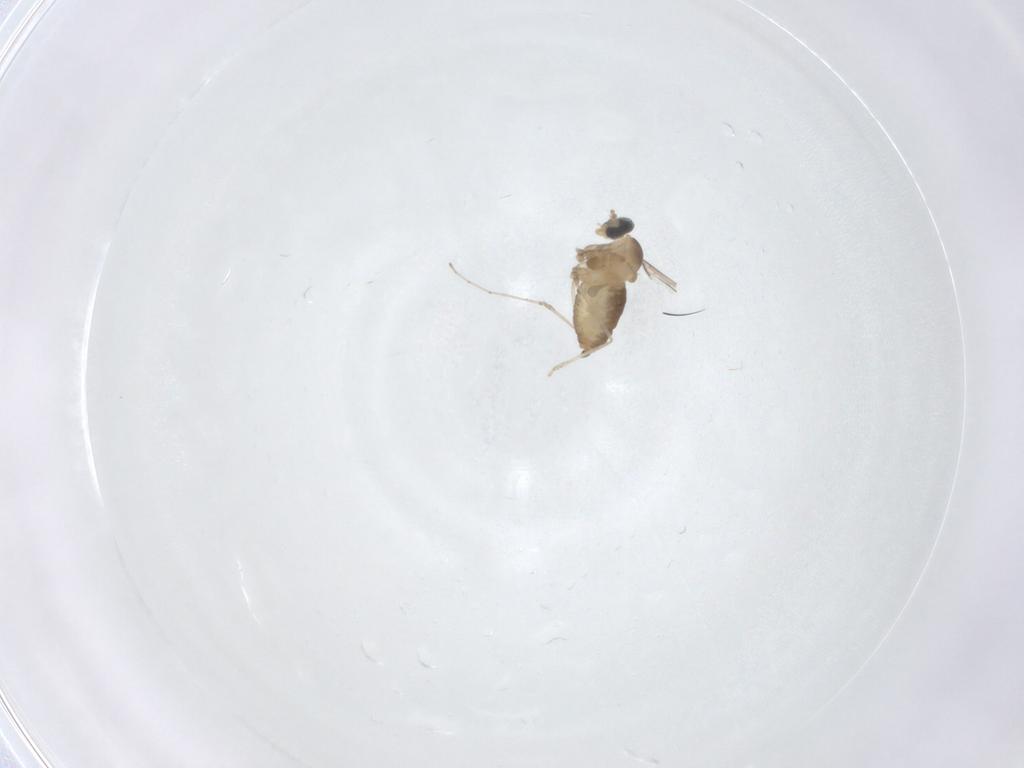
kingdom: Animalia
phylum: Arthropoda
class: Insecta
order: Diptera
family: Cecidomyiidae
